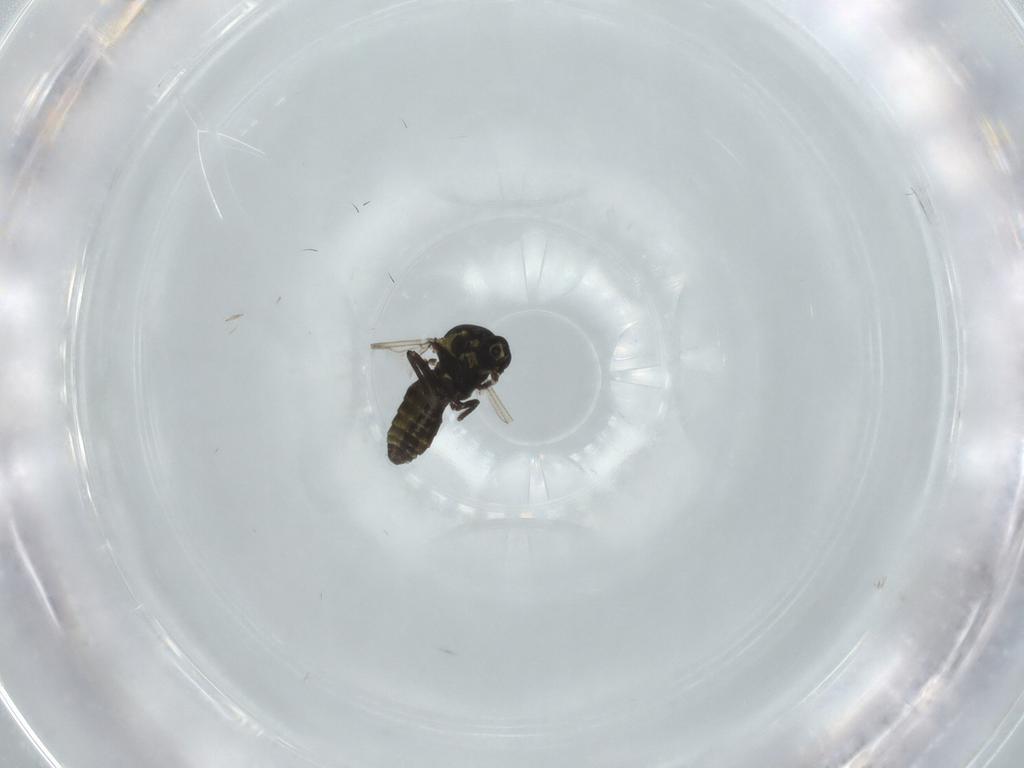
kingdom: Animalia
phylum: Arthropoda
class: Insecta
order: Diptera
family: Ceratopogonidae
